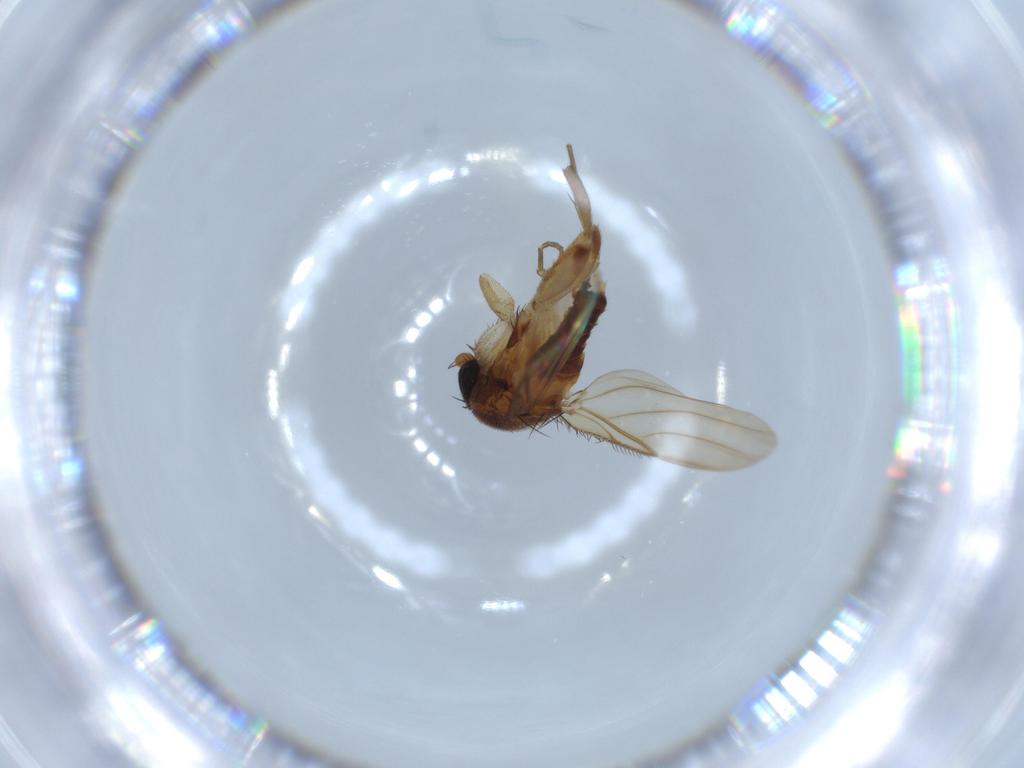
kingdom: Animalia
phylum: Arthropoda
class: Insecta
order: Diptera
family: Phoridae
